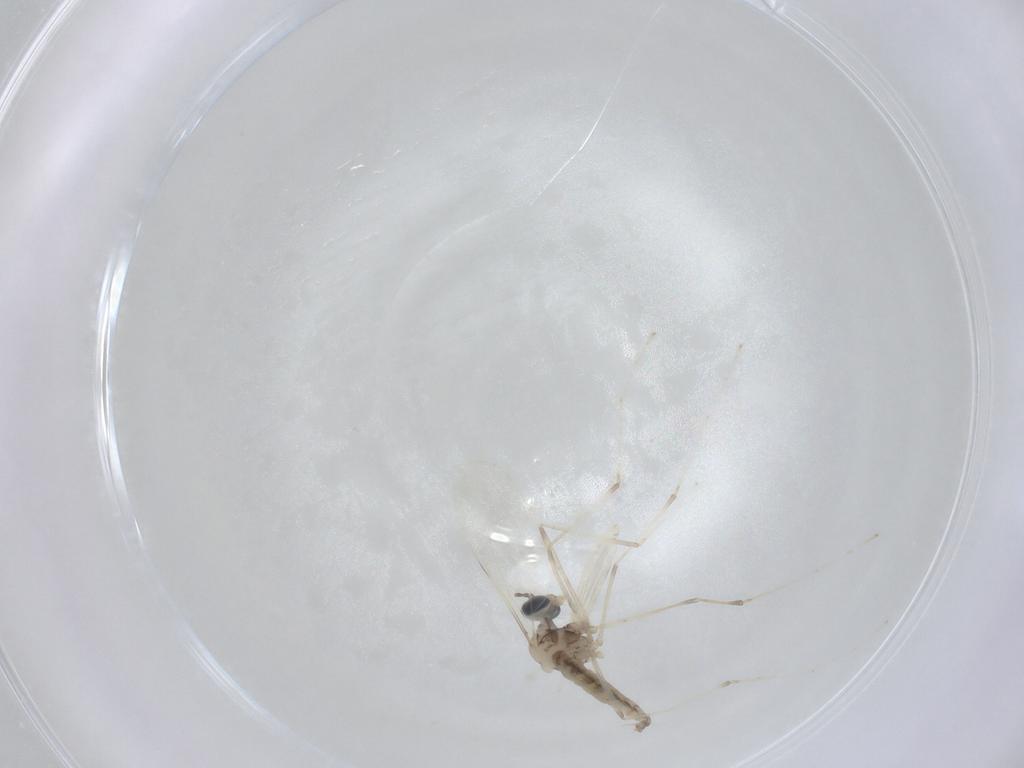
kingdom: Animalia
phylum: Arthropoda
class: Insecta
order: Diptera
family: Cecidomyiidae
